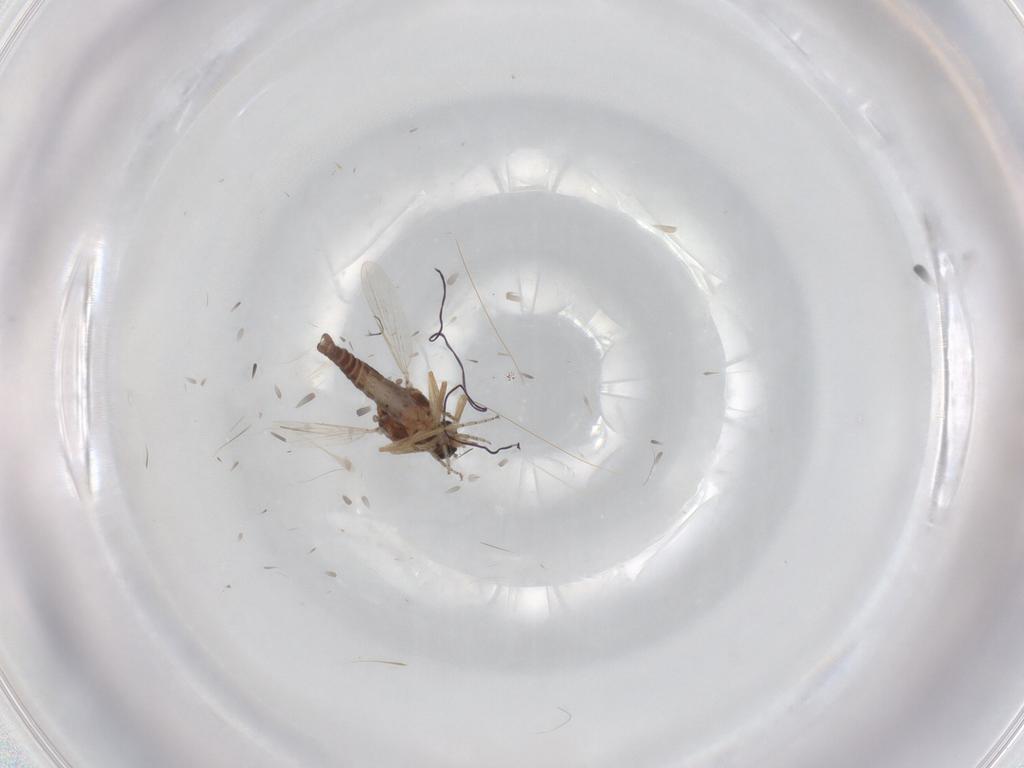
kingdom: Animalia
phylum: Arthropoda
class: Insecta
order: Diptera
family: Ceratopogonidae
